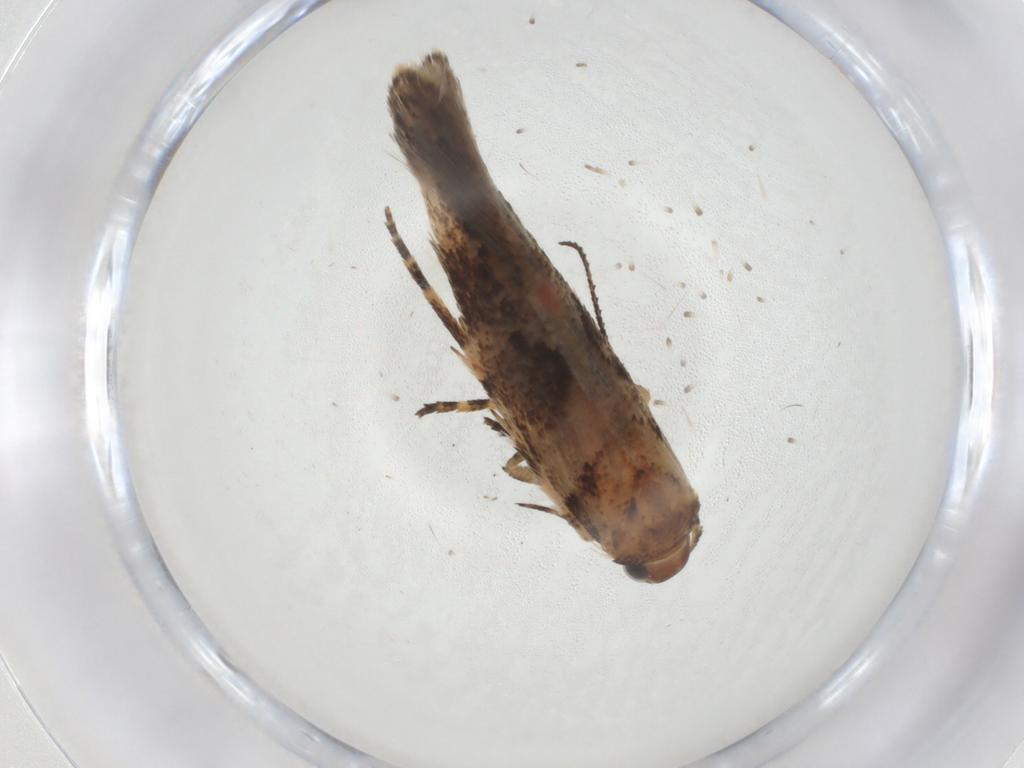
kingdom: Animalia
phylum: Arthropoda
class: Insecta
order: Lepidoptera
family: Gelechiidae
